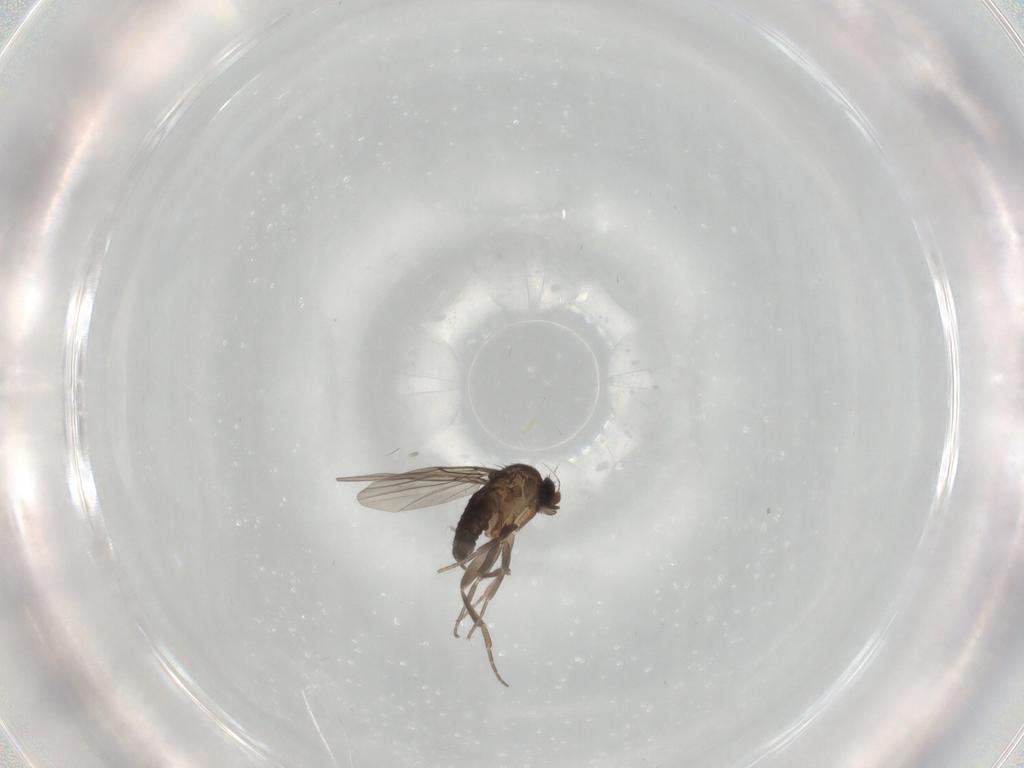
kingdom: Animalia
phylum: Arthropoda
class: Insecta
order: Diptera
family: Phoridae
